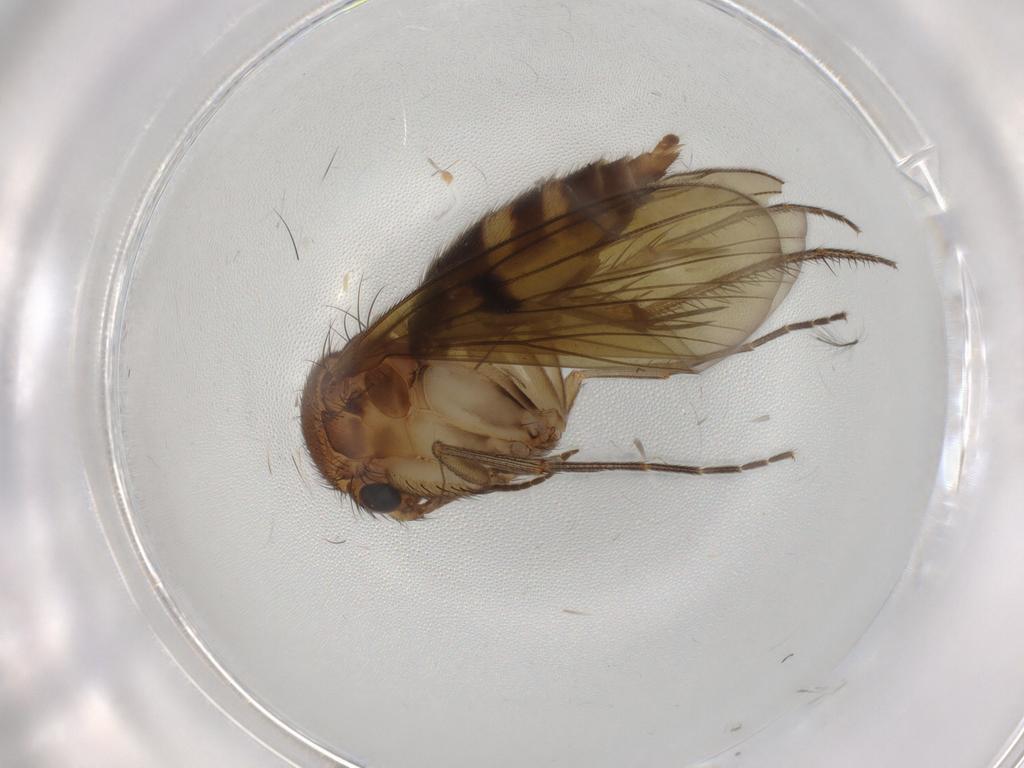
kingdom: Animalia
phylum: Arthropoda
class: Insecta
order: Diptera
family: Mycetophilidae
